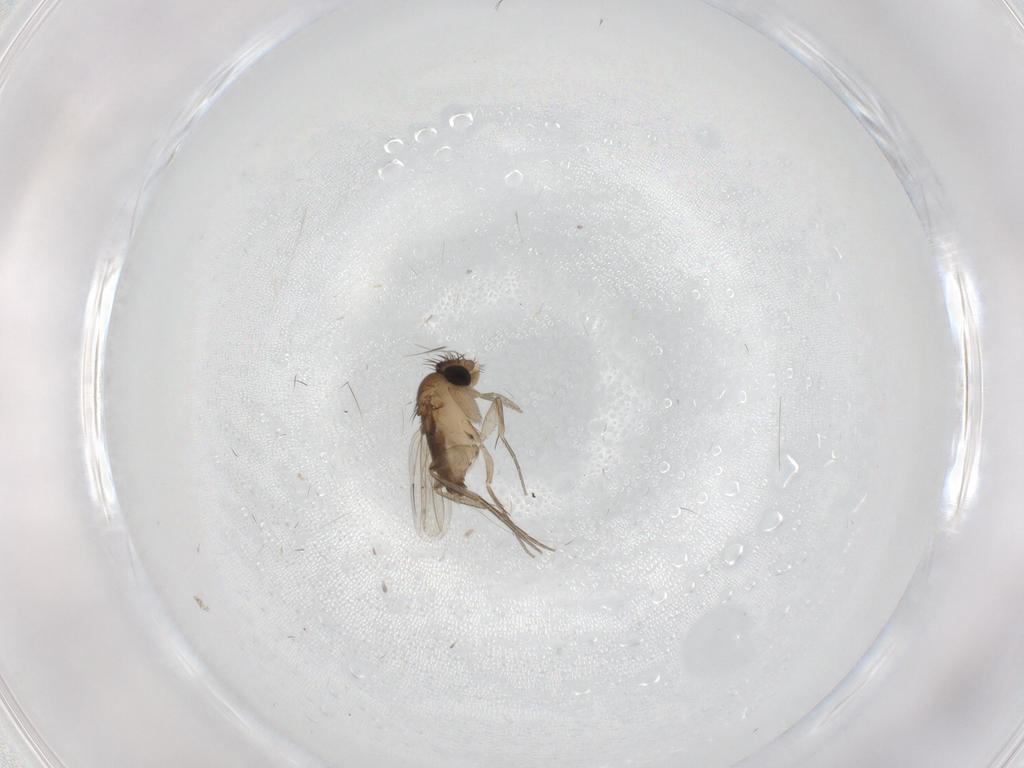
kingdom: Animalia
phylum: Arthropoda
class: Insecta
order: Diptera
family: Phoridae
